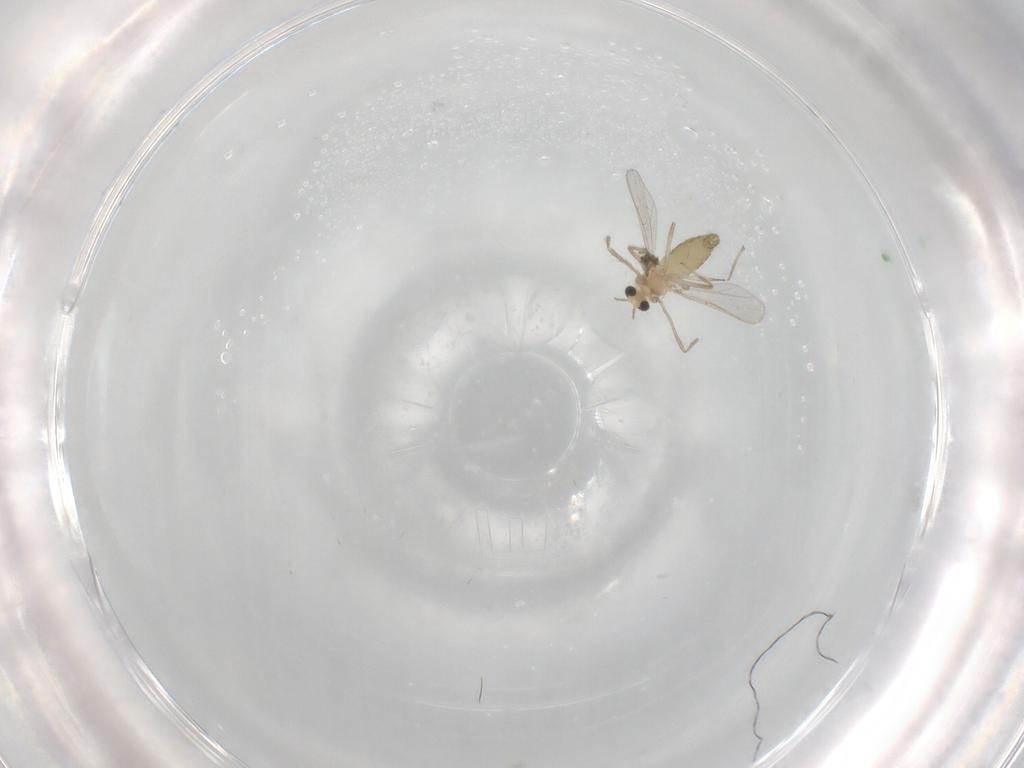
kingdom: Animalia
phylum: Arthropoda
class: Insecta
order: Diptera
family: Chironomidae
